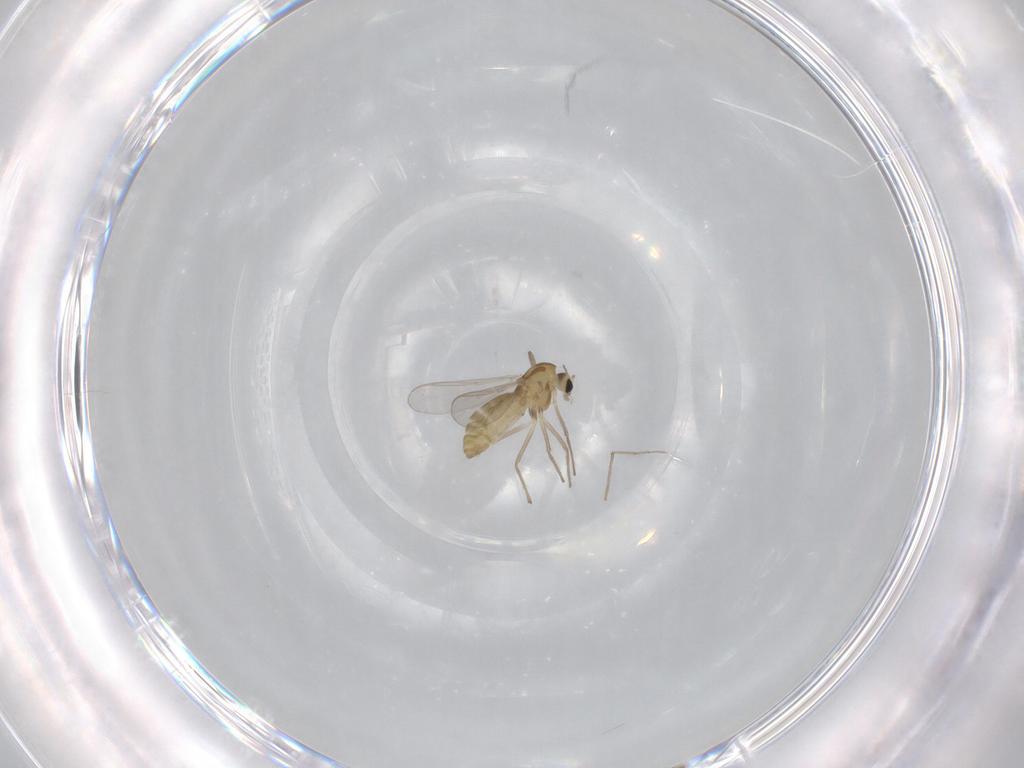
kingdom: Animalia
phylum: Arthropoda
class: Insecta
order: Diptera
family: Chironomidae
